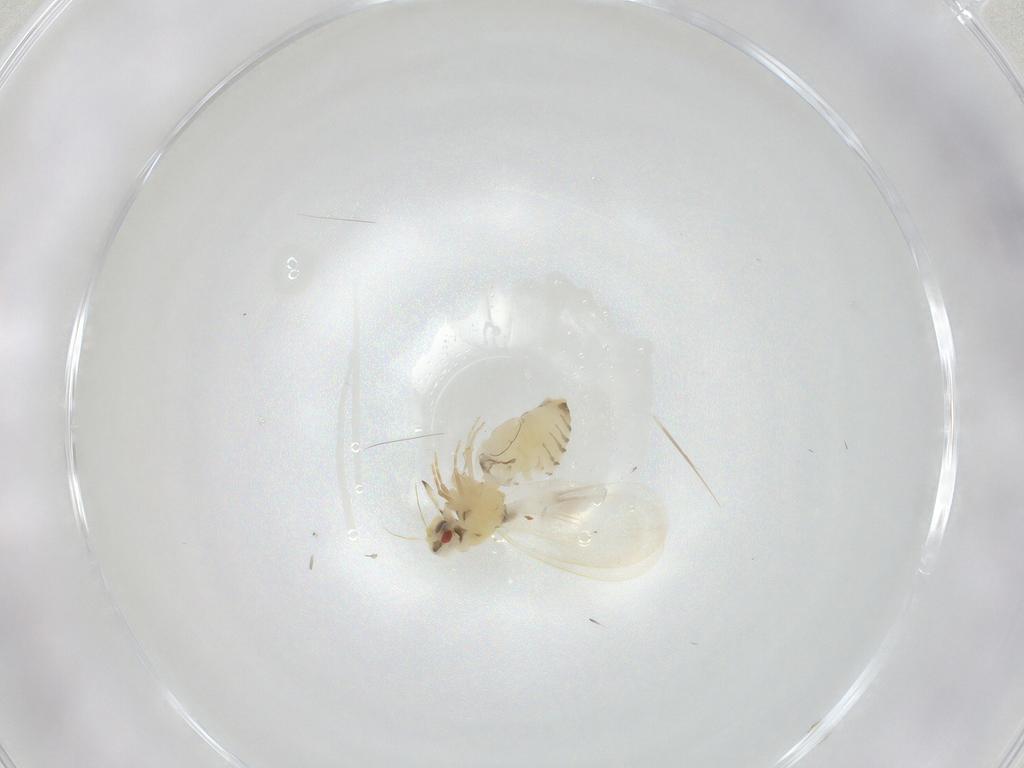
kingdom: Animalia
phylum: Arthropoda
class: Insecta
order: Hemiptera
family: Aleyrodidae
